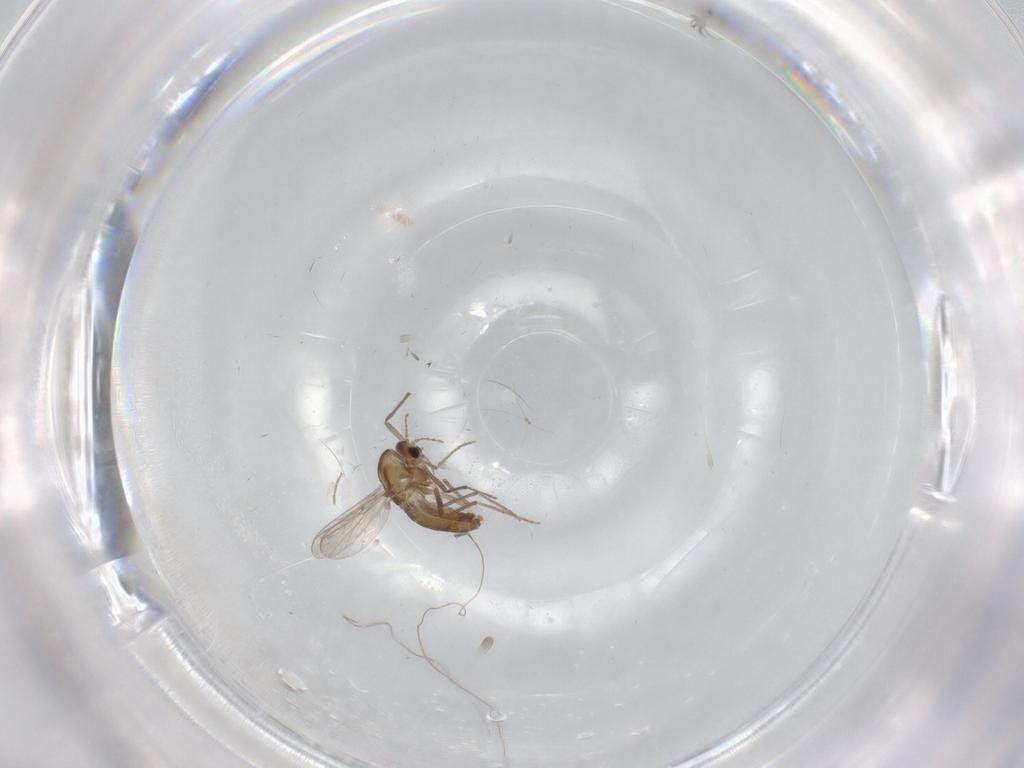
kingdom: Animalia
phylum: Arthropoda
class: Insecta
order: Diptera
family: Chironomidae
